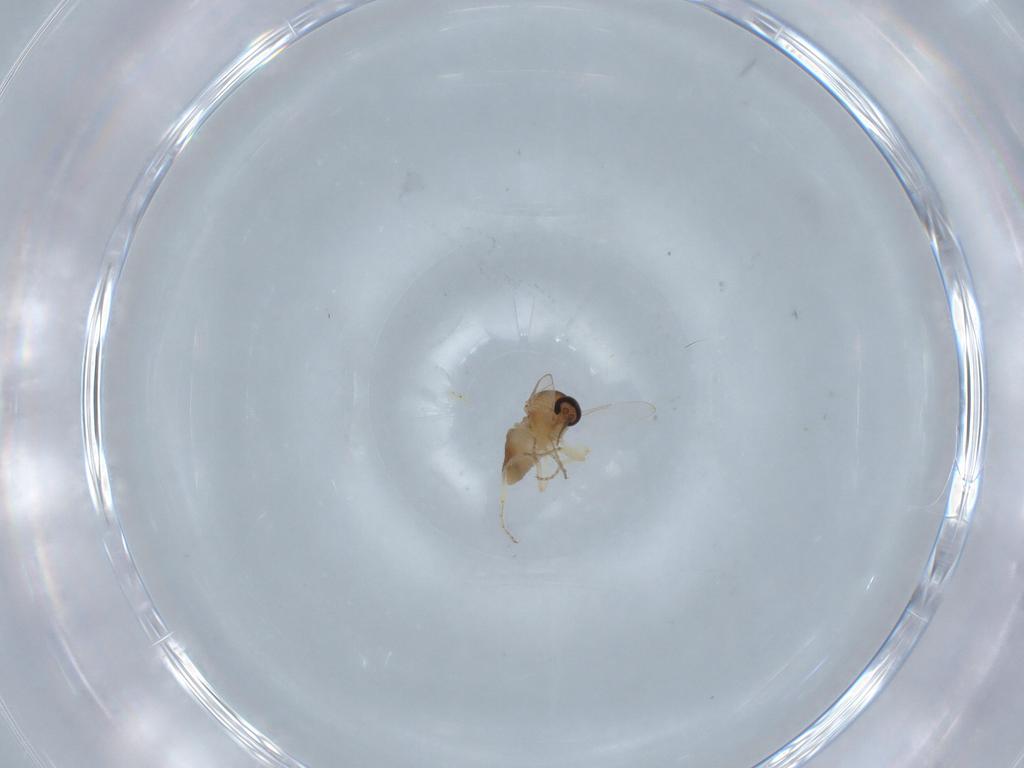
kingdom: Animalia
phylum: Arthropoda
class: Insecta
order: Diptera
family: Ceratopogonidae
